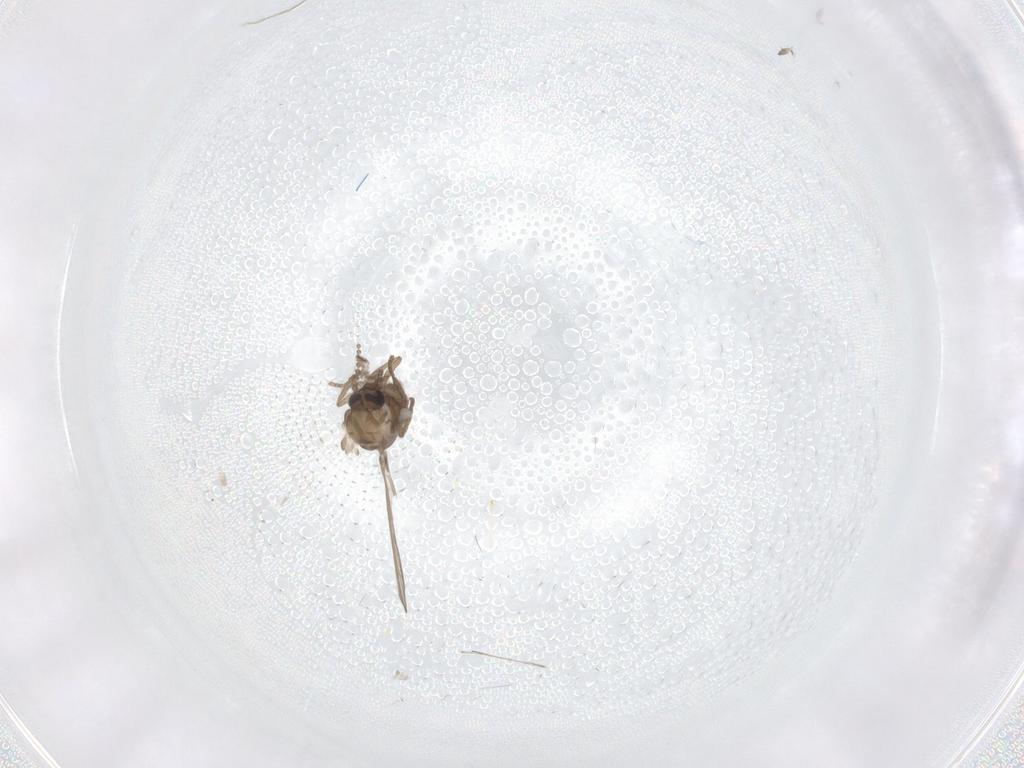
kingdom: Animalia
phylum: Arthropoda
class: Insecta
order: Diptera
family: Psychodidae
